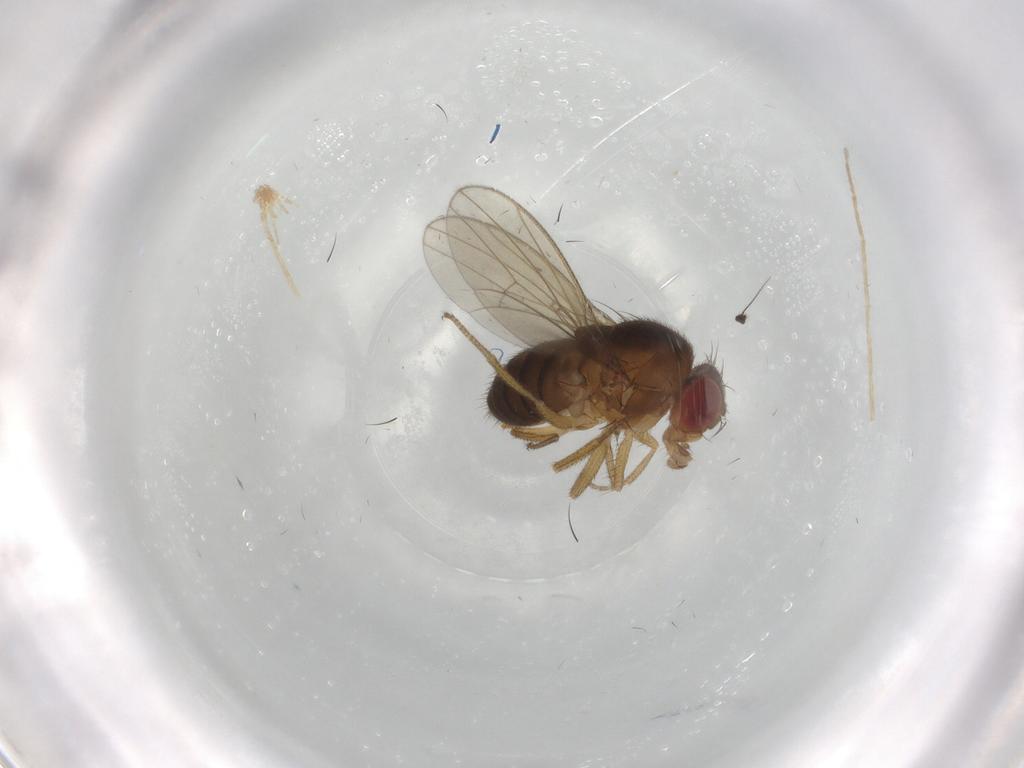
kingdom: Animalia
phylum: Arthropoda
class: Insecta
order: Diptera
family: Drosophilidae
